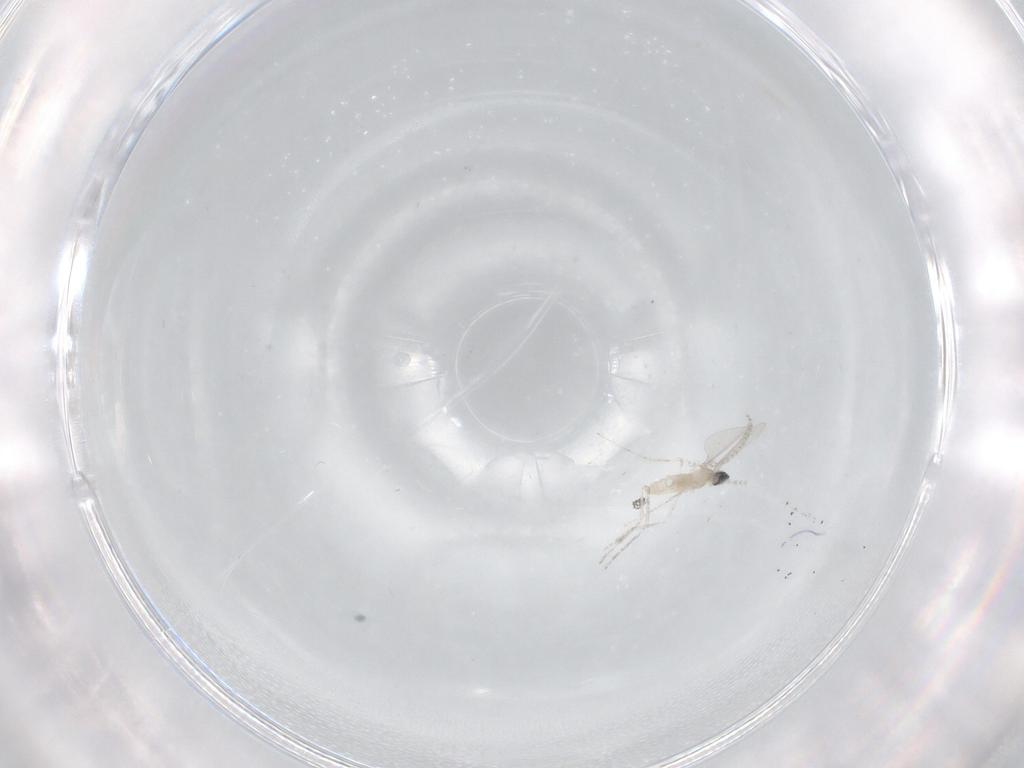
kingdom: Animalia
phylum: Arthropoda
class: Insecta
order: Diptera
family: Cecidomyiidae
